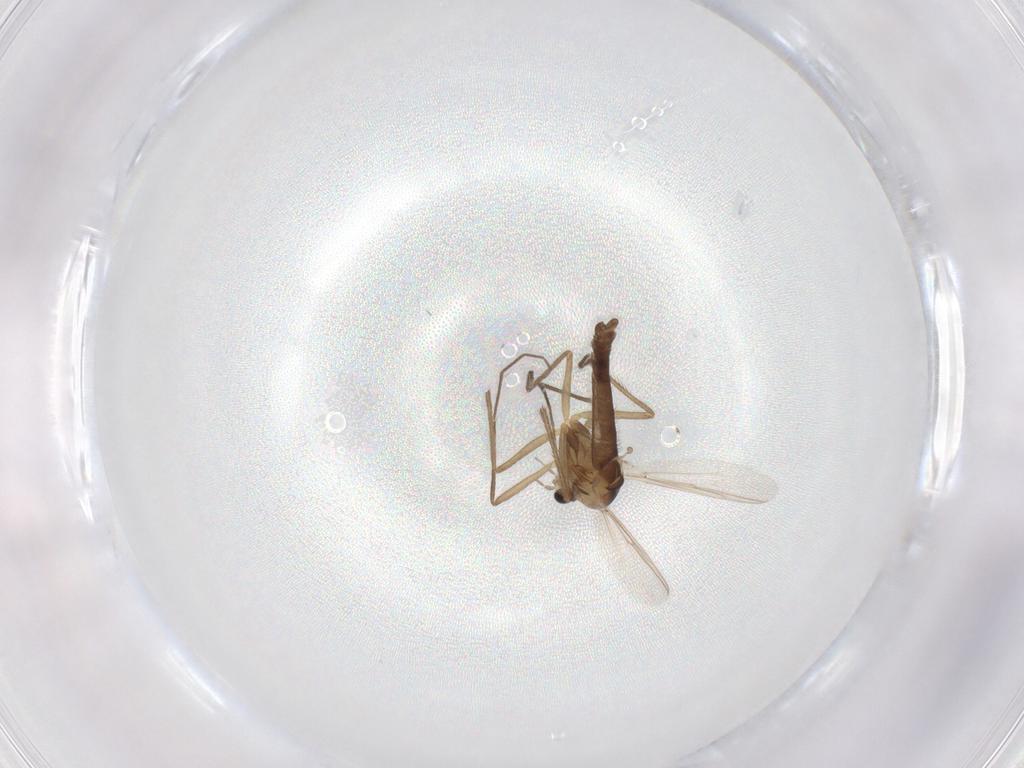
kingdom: Animalia
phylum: Arthropoda
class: Insecta
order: Diptera
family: Chironomidae
